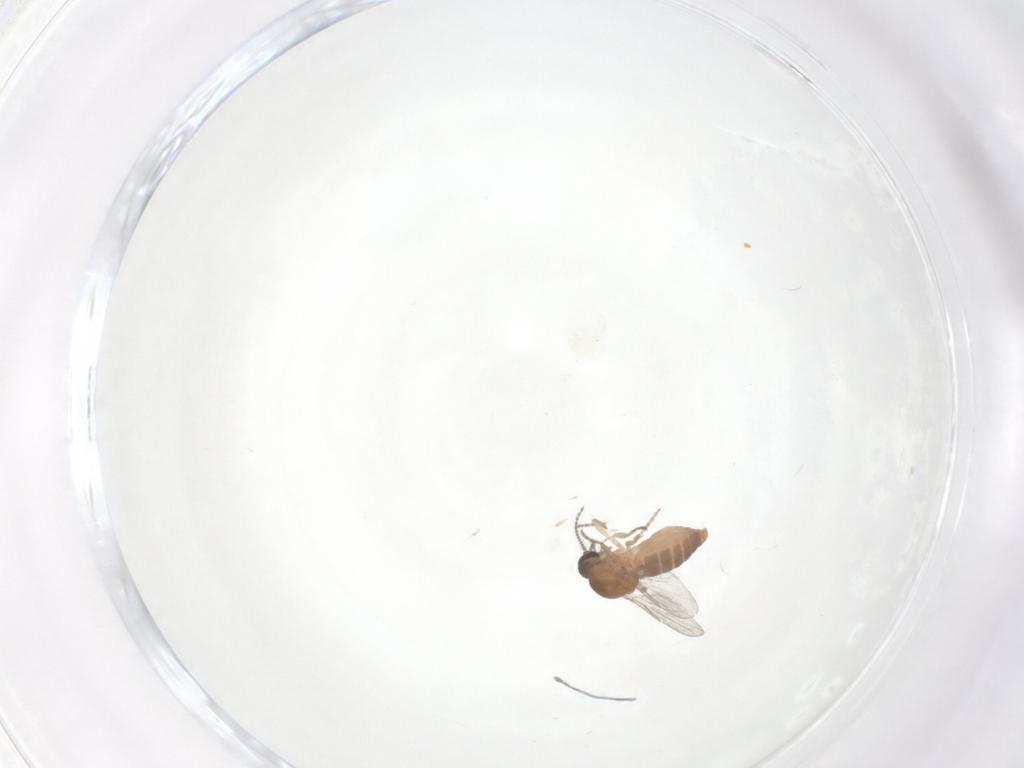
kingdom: Animalia
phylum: Arthropoda
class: Insecta
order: Diptera
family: Ceratopogonidae
